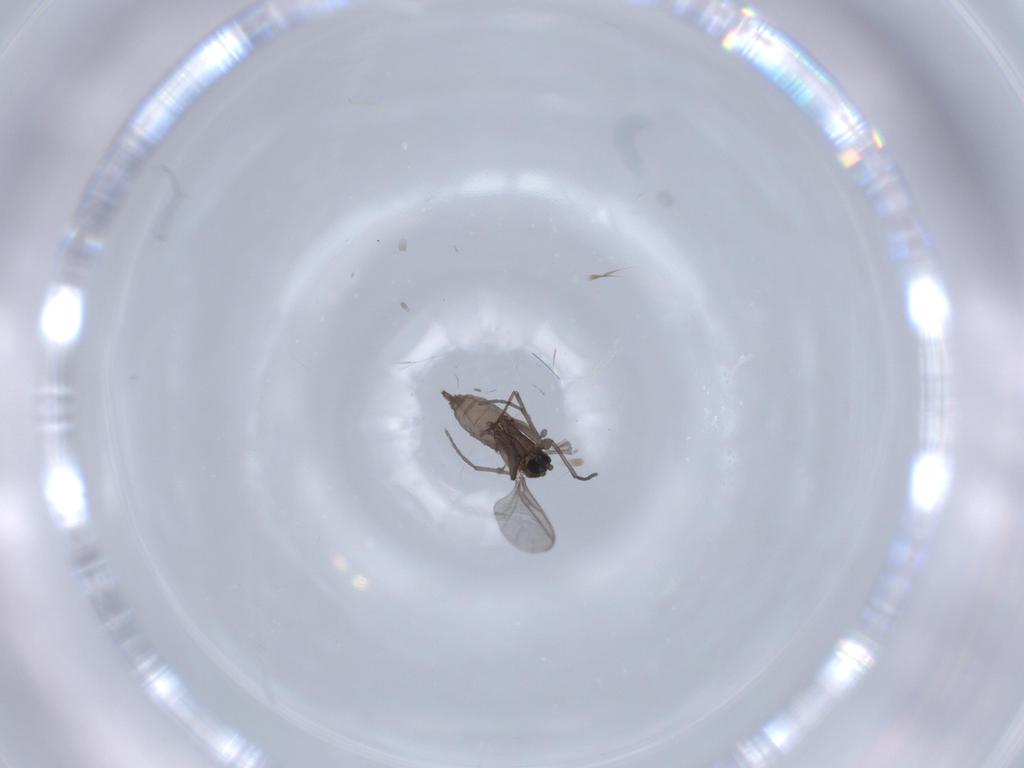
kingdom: Animalia
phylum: Arthropoda
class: Insecta
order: Diptera
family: Sciaridae
